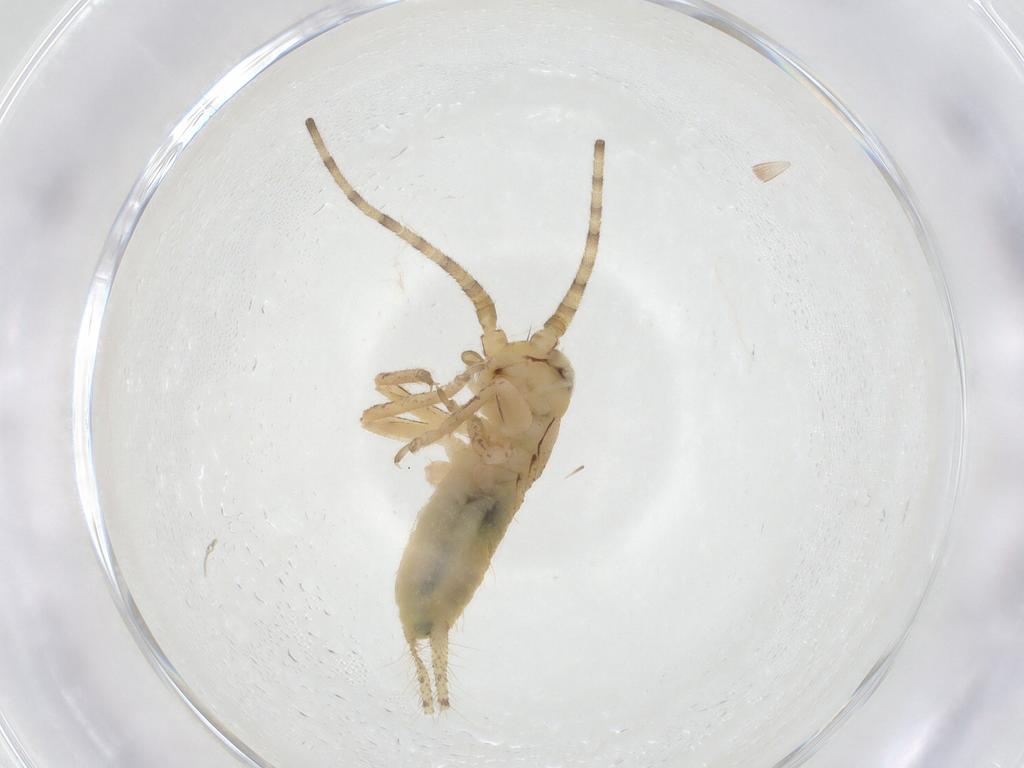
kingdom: Animalia
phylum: Arthropoda
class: Insecta
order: Orthoptera
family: Gryllidae
